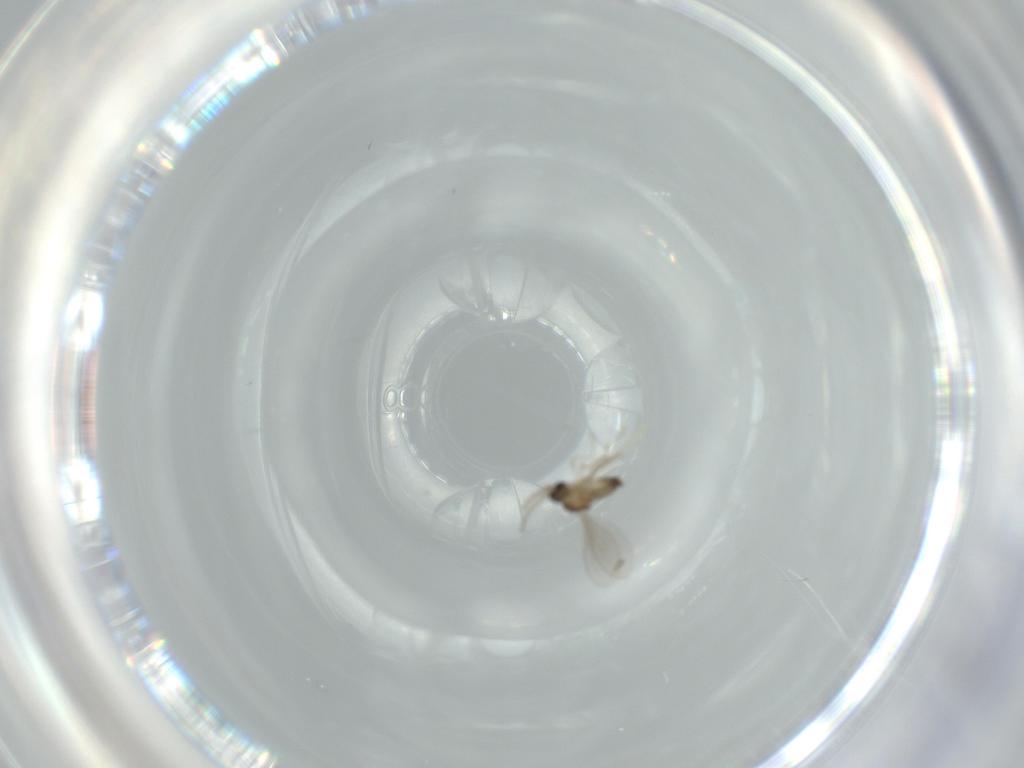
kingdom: Animalia
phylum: Arthropoda
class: Insecta
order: Diptera
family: Cecidomyiidae
